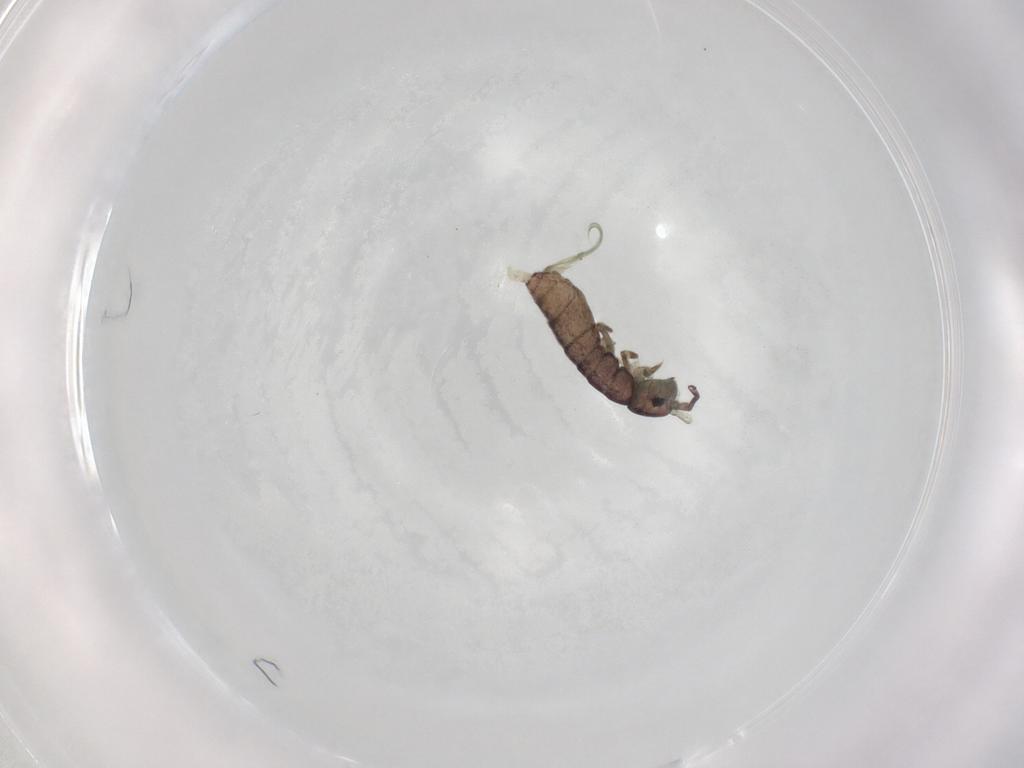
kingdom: Animalia
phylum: Arthropoda
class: Collembola
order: Entomobryomorpha
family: Isotomidae
